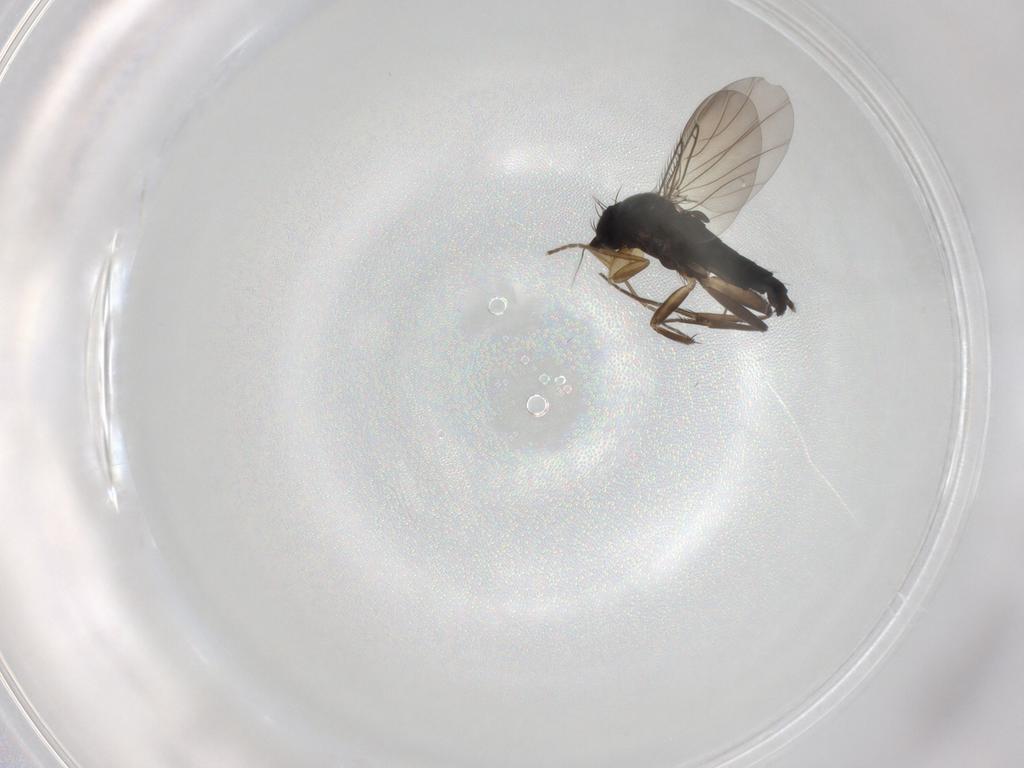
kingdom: Animalia
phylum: Arthropoda
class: Insecta
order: Diptera
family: Phoridae
